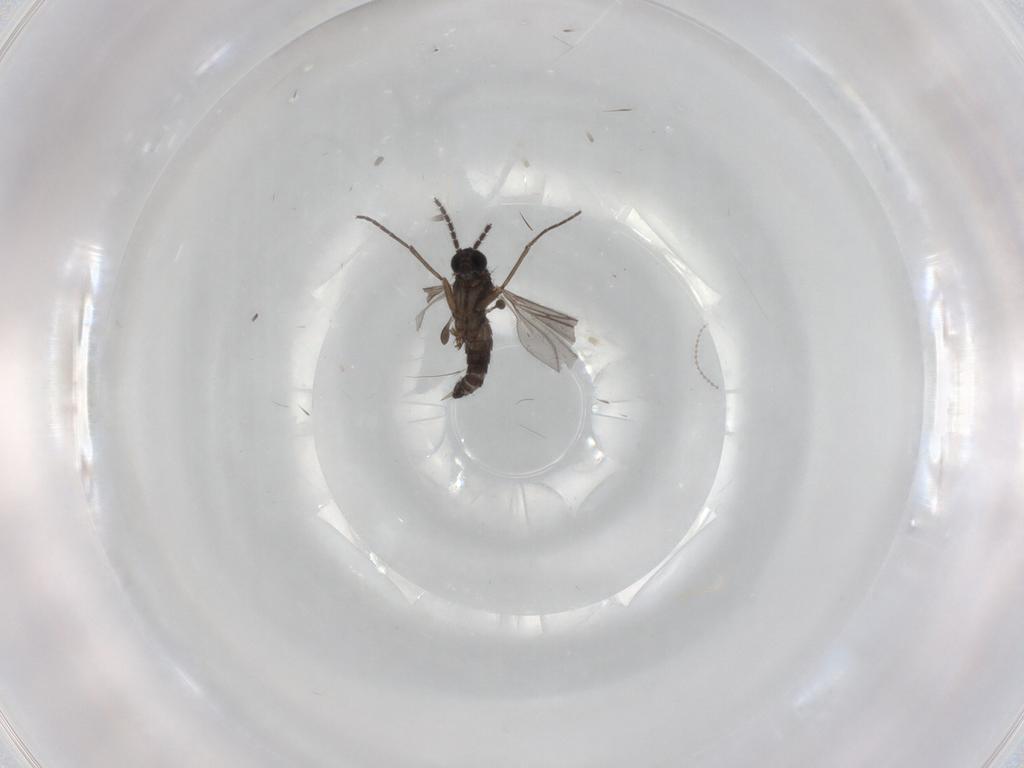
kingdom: Animalia
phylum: Arthropoda
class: Insecta
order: Diptera
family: Sciaridae
